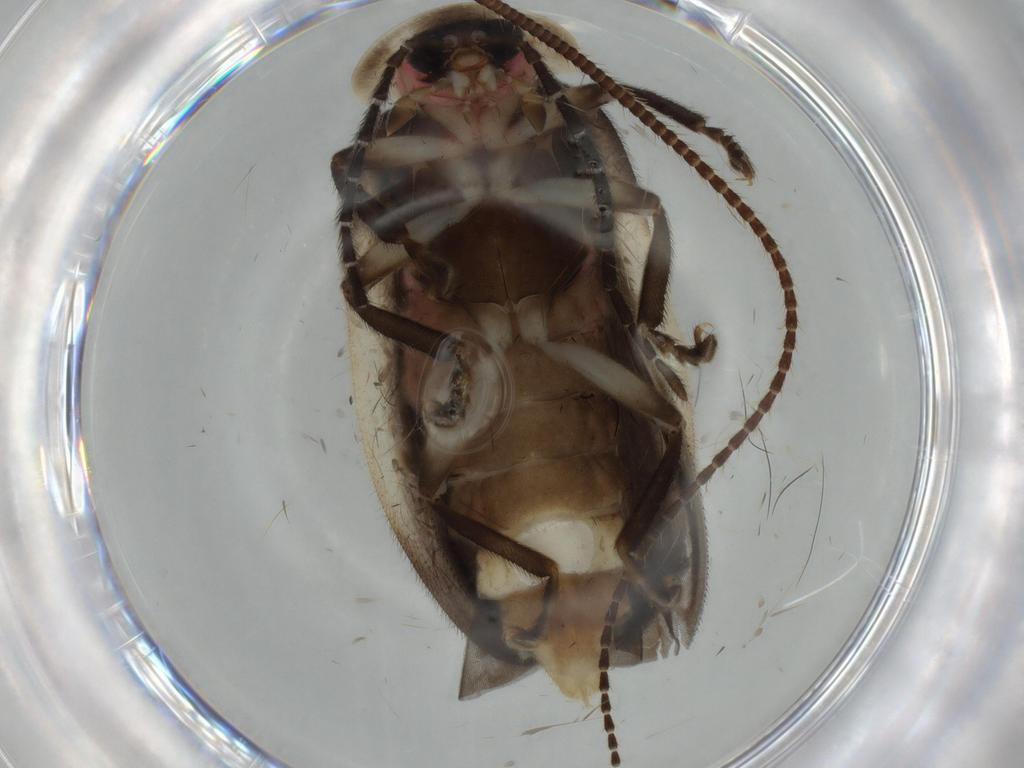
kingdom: Animalia
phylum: Arthropoda
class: Insecta
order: Coleoptera
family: Lampyridae
